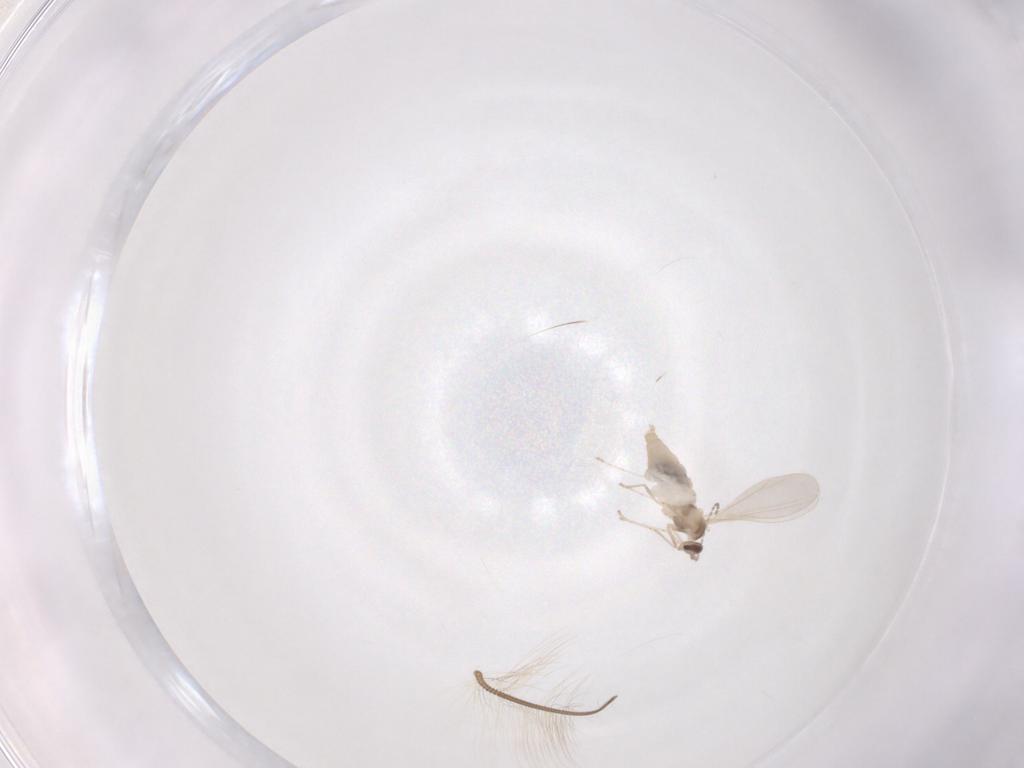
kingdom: Animalia
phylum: Arthropoda
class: Insecta
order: Diptera
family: Cecidomyiidae
